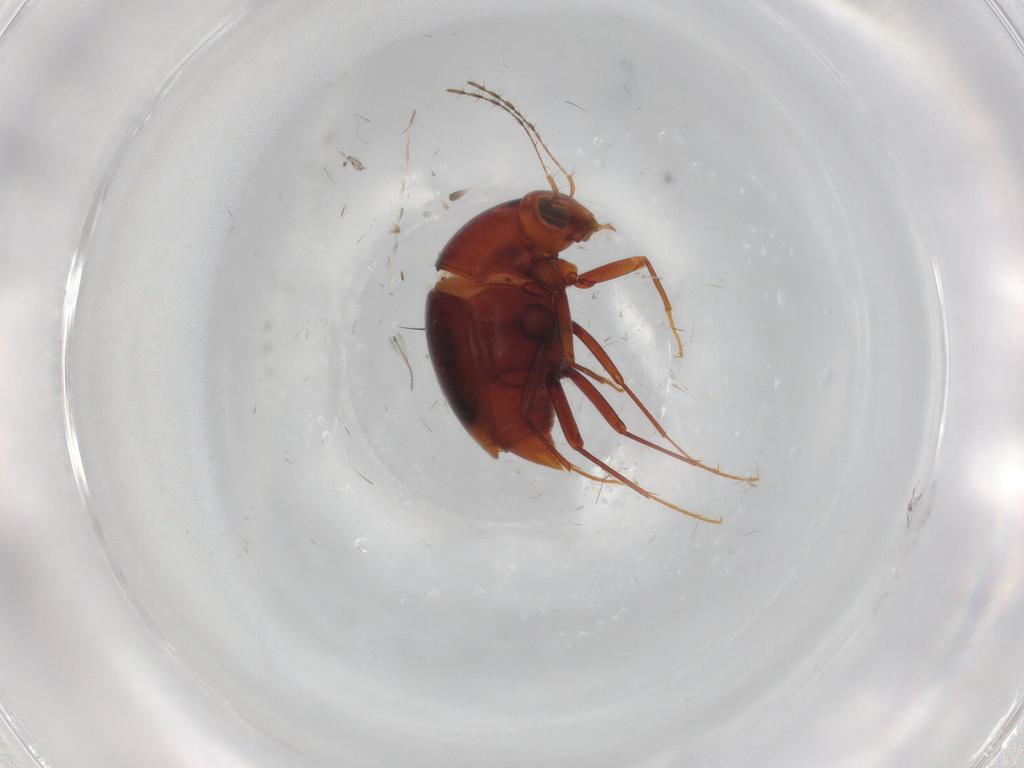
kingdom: Animalia
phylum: Arthropoda
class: Insecta
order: Coleoptera
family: Staphylinidae
